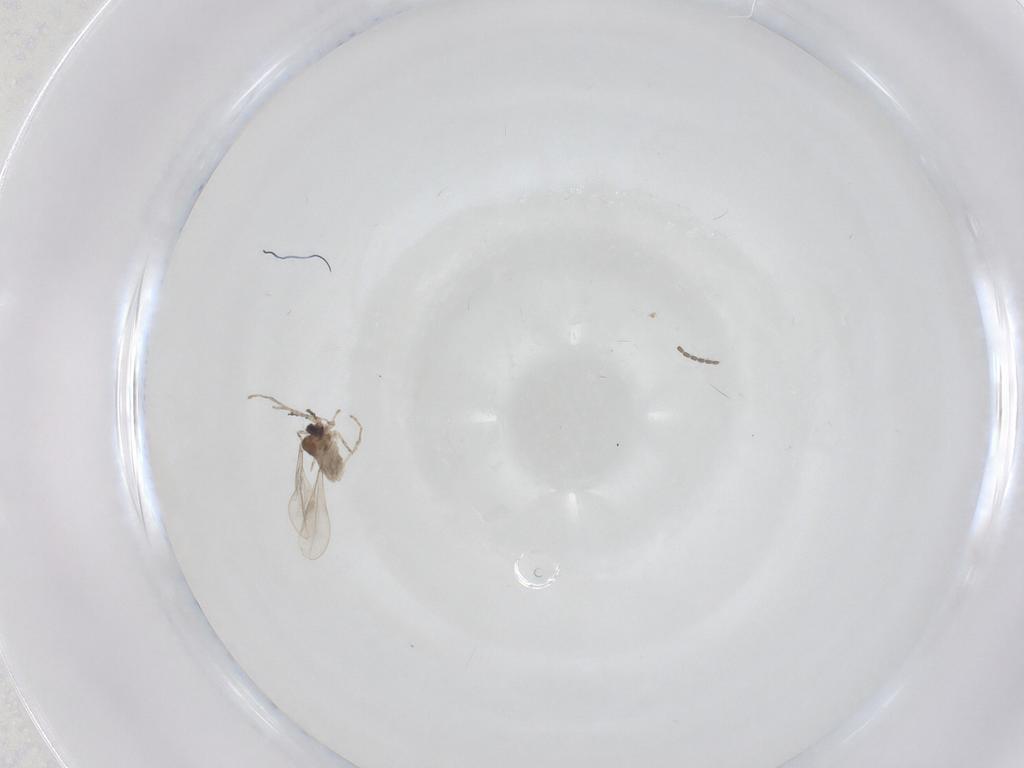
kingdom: Animalia
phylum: Arthropoda
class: Insecta
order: Diptera
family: Cecidomyiidae
